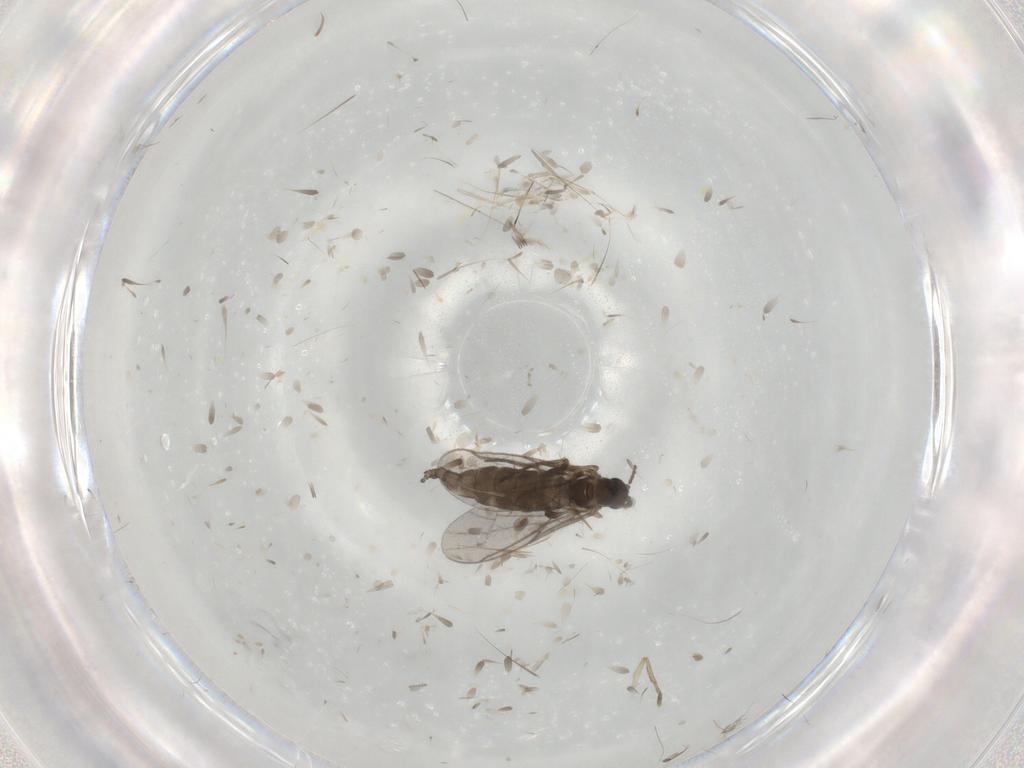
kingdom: Animalia
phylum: Arthropoda
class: Insecta
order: Diptera
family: Sciaridae
